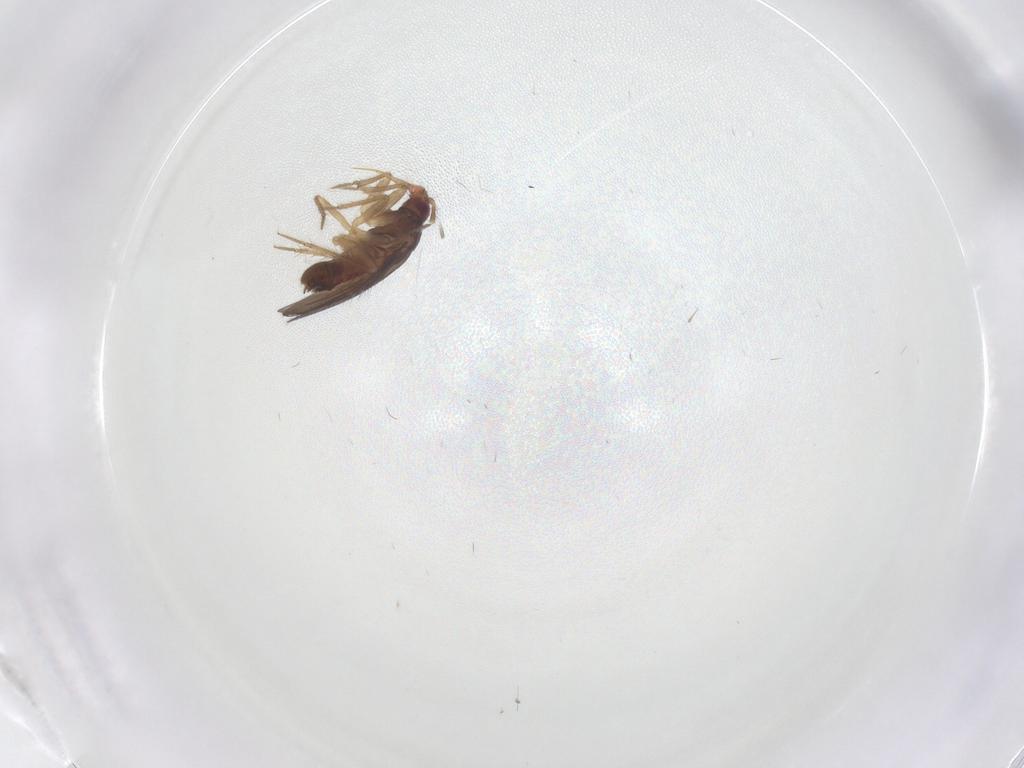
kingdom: Animalia
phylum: Arthropoda
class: Insecta
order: Hemiptera
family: Ceratocombidae
